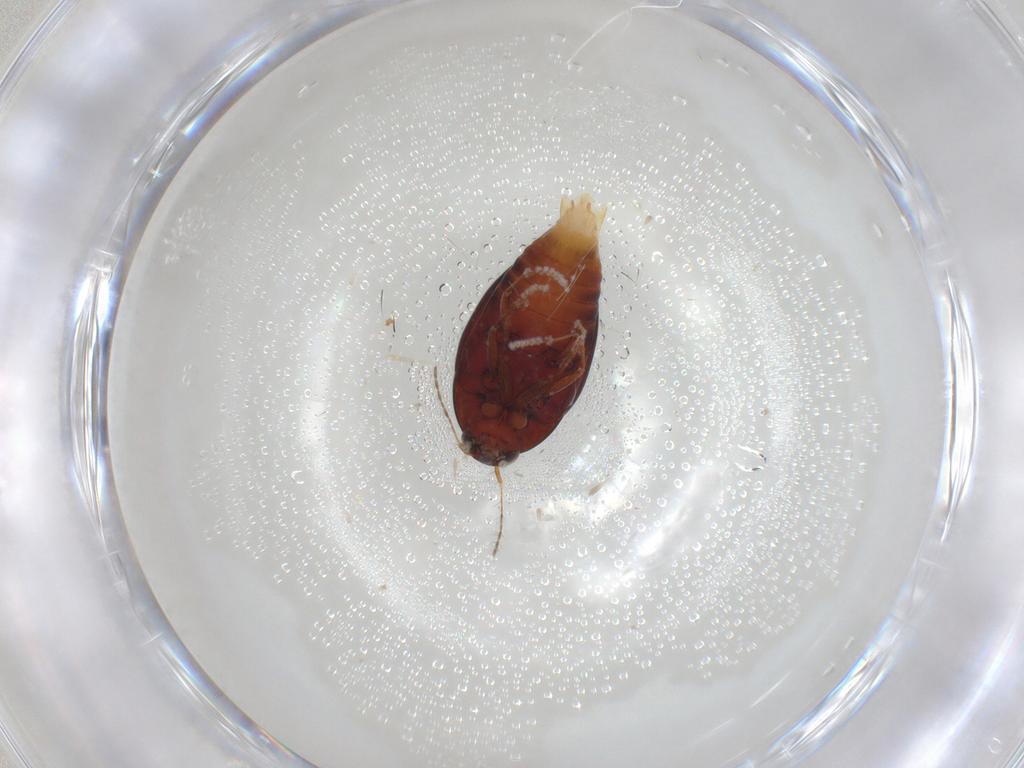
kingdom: Animalia
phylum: Arthropoda
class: Insecta
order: Coleoptera
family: Staphylinidae
